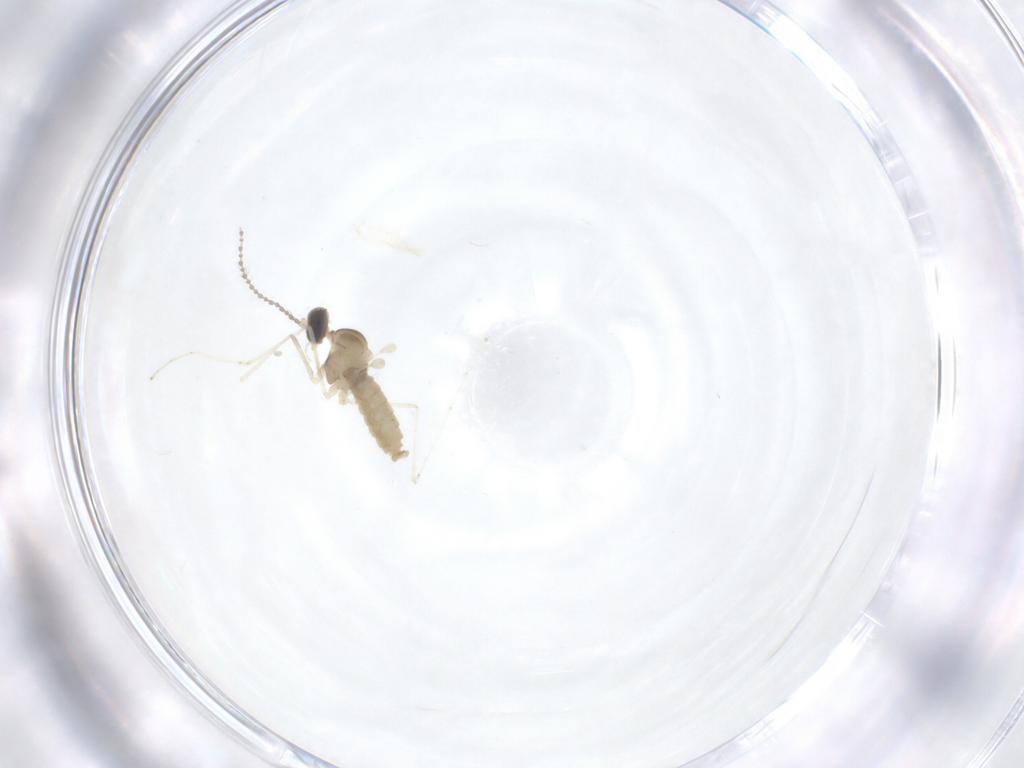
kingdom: Animalia
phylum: Arthropoda
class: Insecta
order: Diptera
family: Cecidomyiidae
